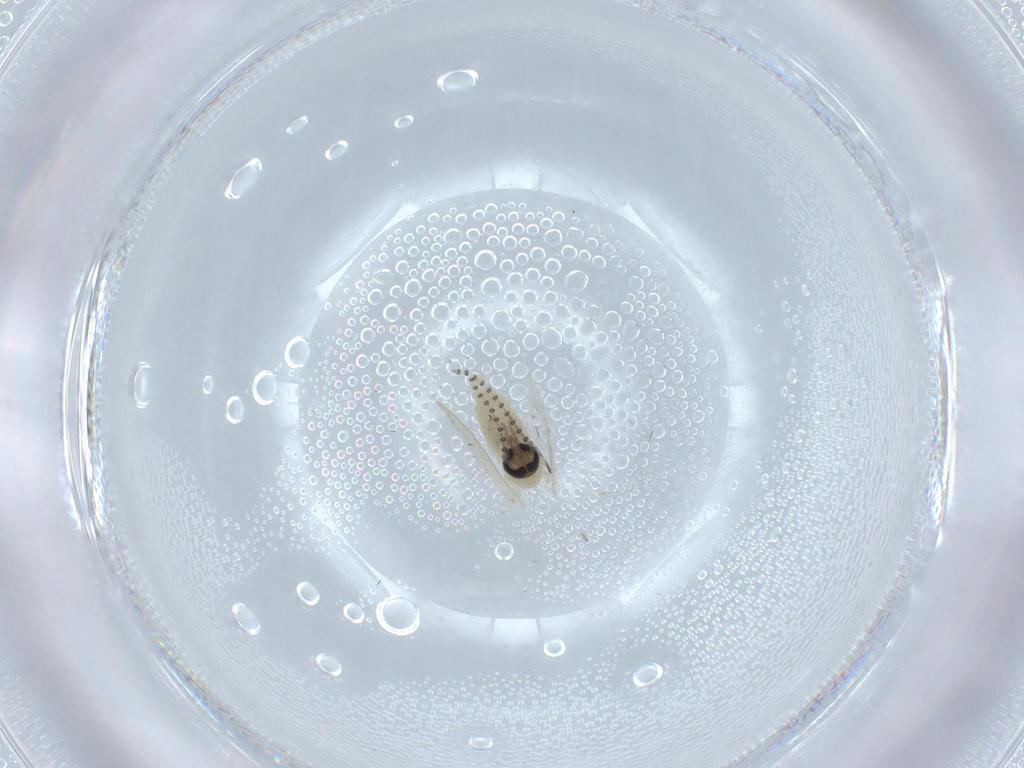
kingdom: Animalia
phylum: Arthropoda
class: Insecta
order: Diptera
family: Psychodidae
